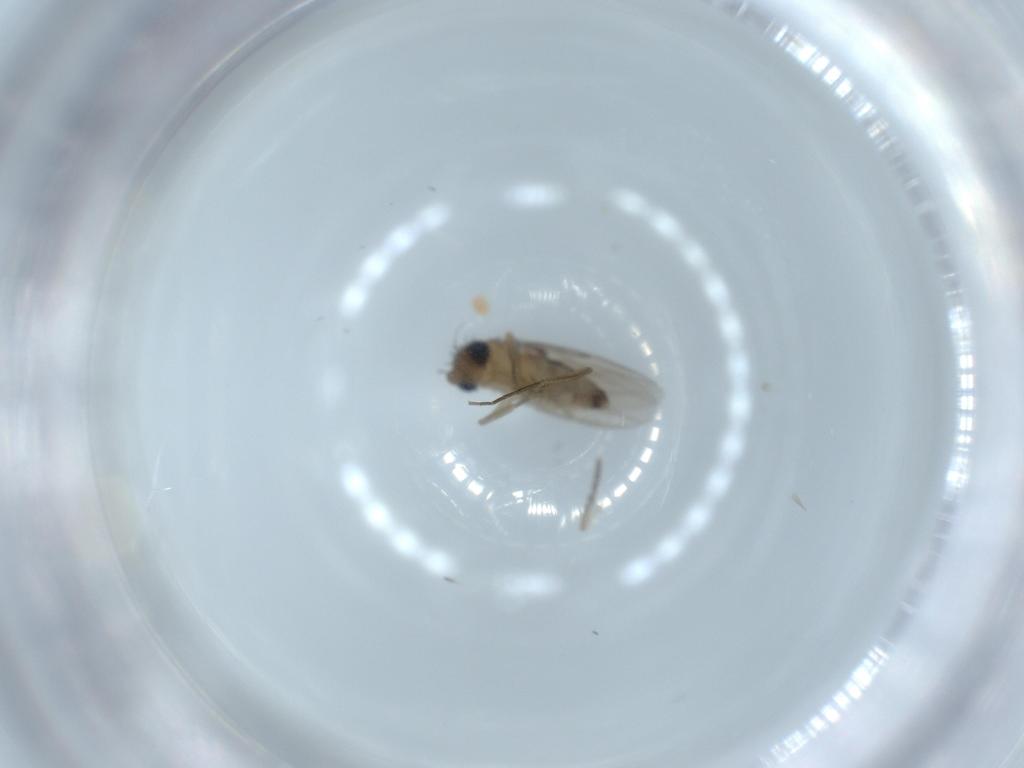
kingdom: Animalia
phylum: Arthropoda
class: Insecta
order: Diptera
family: Phoridae
